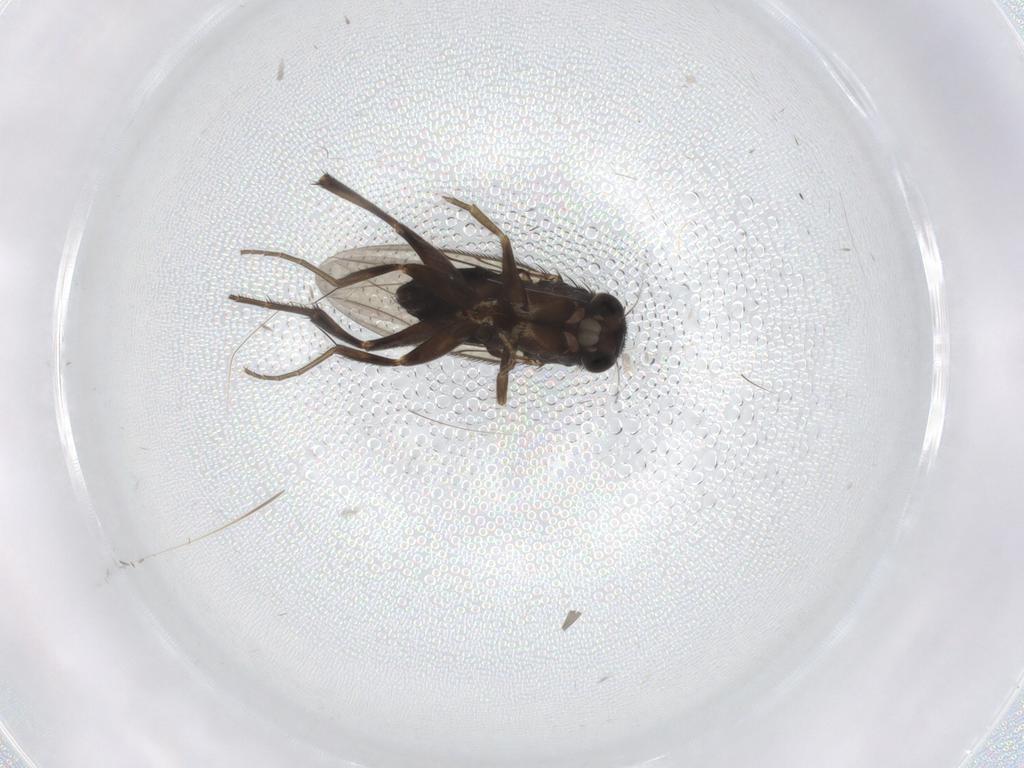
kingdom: Animalia
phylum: Arthropoda
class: Insecta
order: Diptera
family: Phoridae
